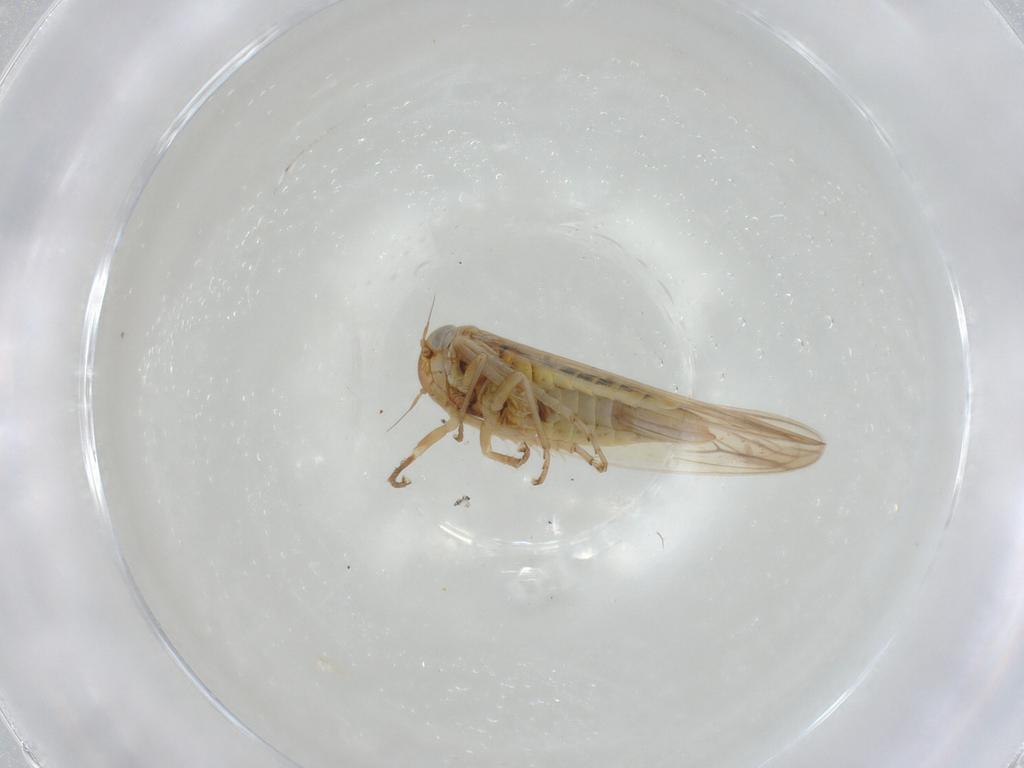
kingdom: Animalia
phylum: Arthropoda
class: Insecta
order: Hemiptera
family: Cicadellidae
